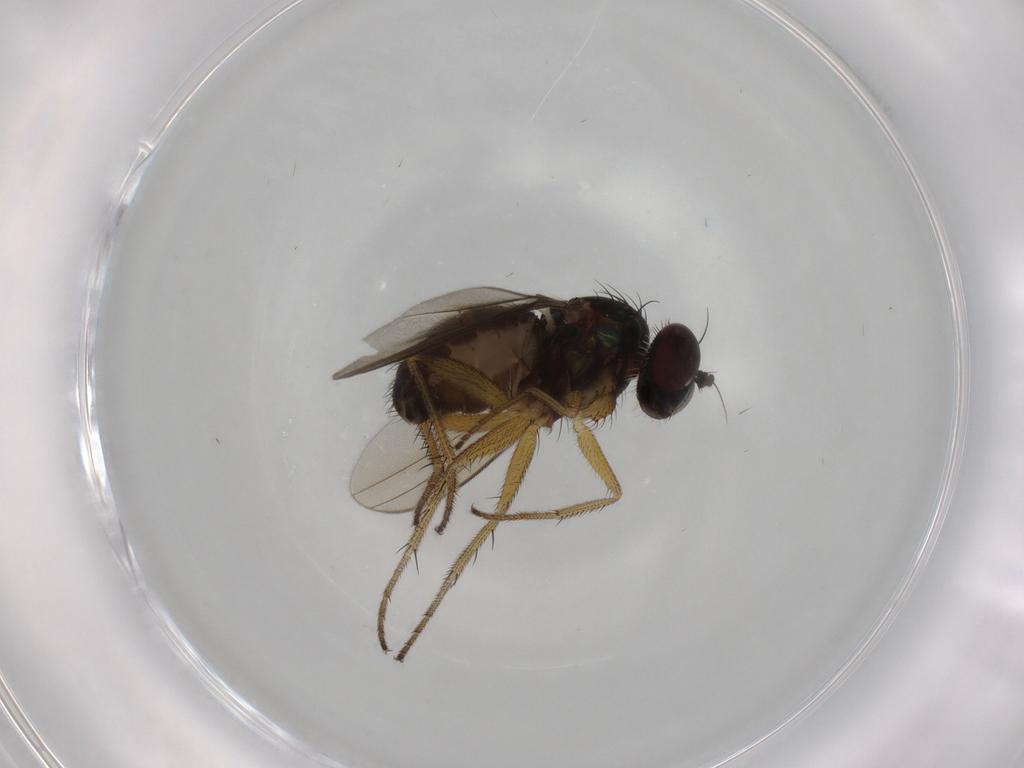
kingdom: Animalia
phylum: Arthropoda
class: Insecta
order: Diptera
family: Dolichopodidae
